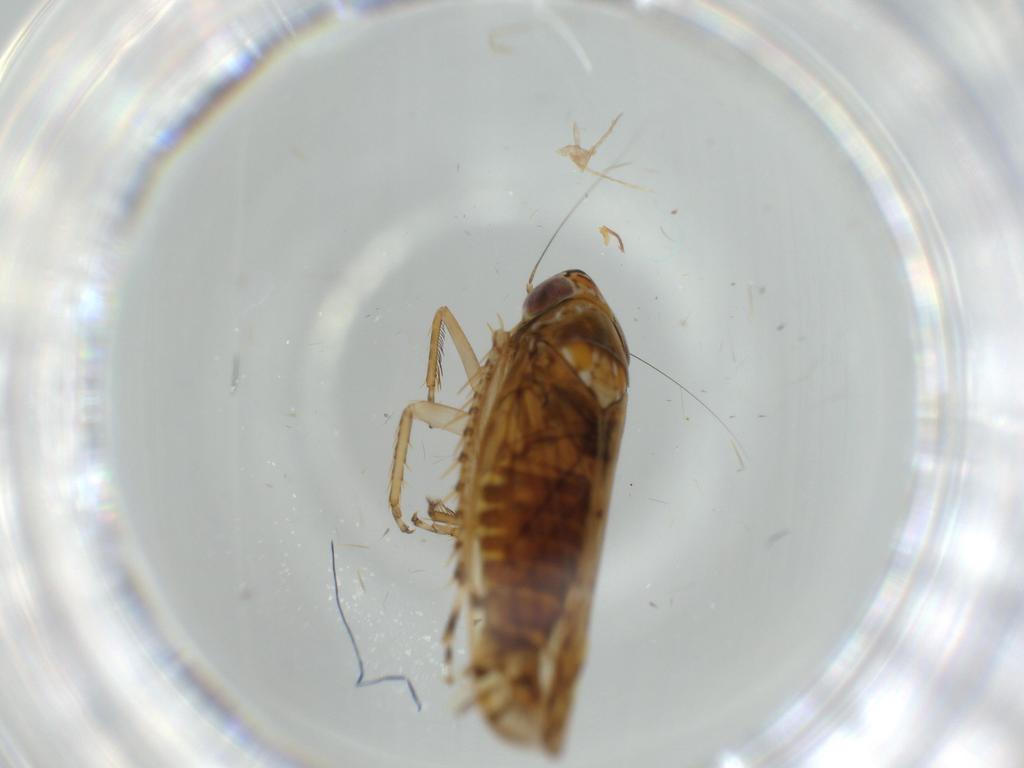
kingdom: Animalia
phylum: Arthropoda
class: Insecta
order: Hemiptera
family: Cicadellidae
